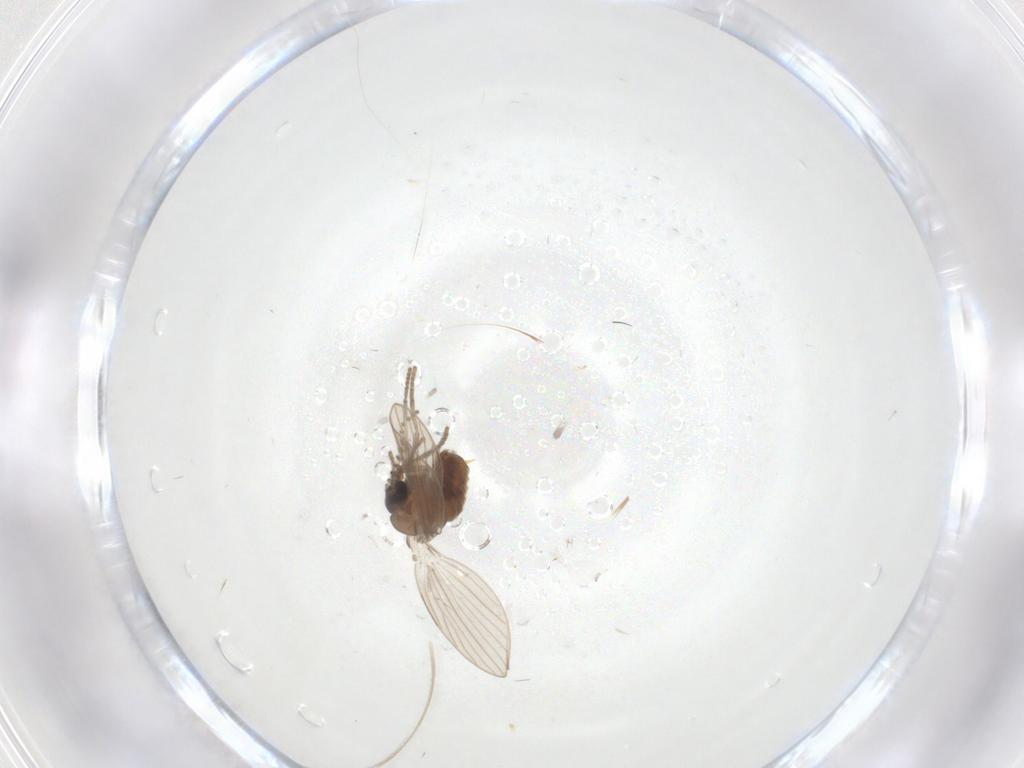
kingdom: Animalia
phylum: Arthropoda
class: Insecta
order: Diptera
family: Psychodidae
